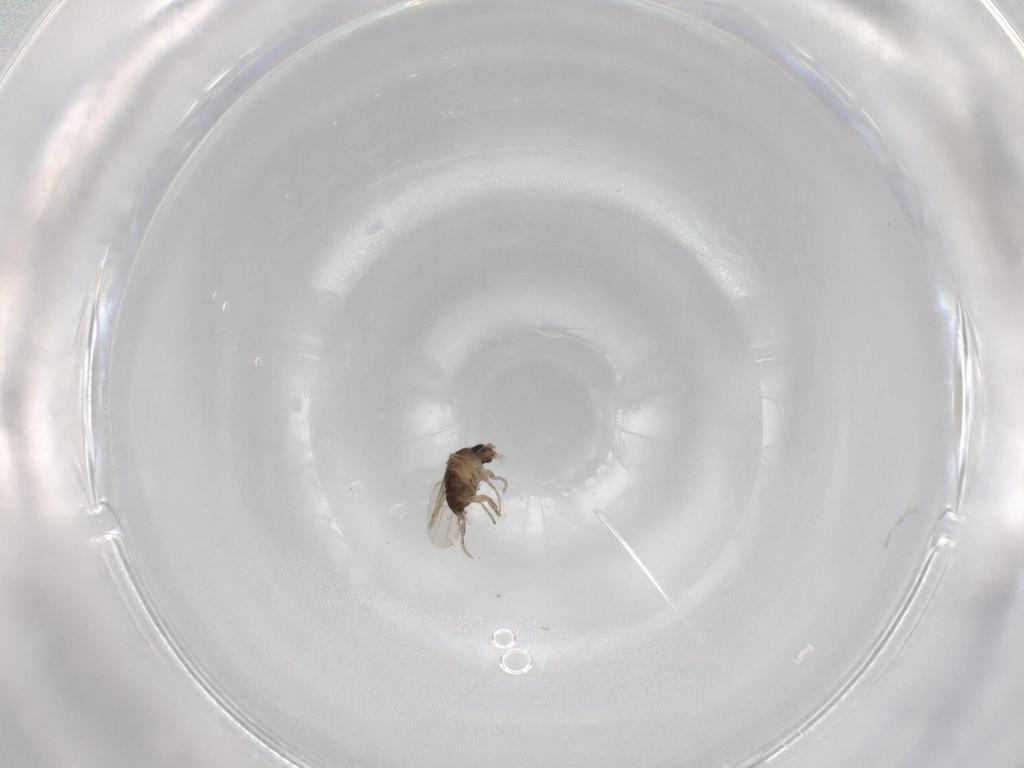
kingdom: Animalia
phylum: Arthropoda
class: Insecta
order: Diptera
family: Phoridae
